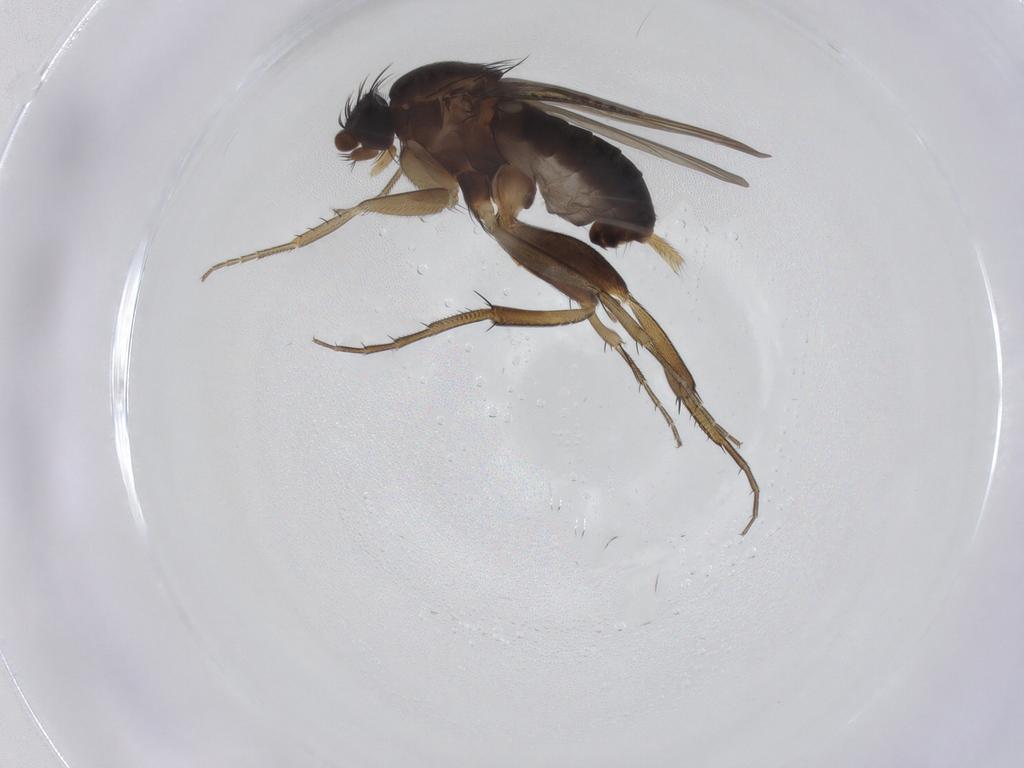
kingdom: Animalia
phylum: Arthropoda
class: Insecta
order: Diptera
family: Phoridae
